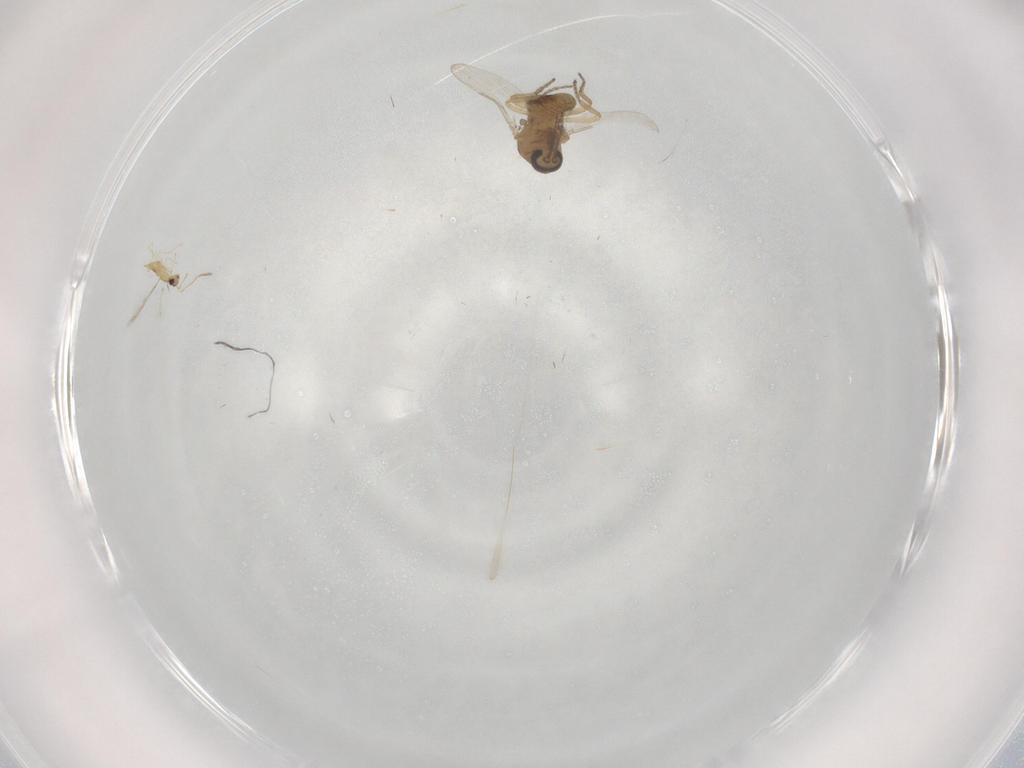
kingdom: Animalia
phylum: Arthropoda
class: Insecta
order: Diptera
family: Ceratopogonidae
